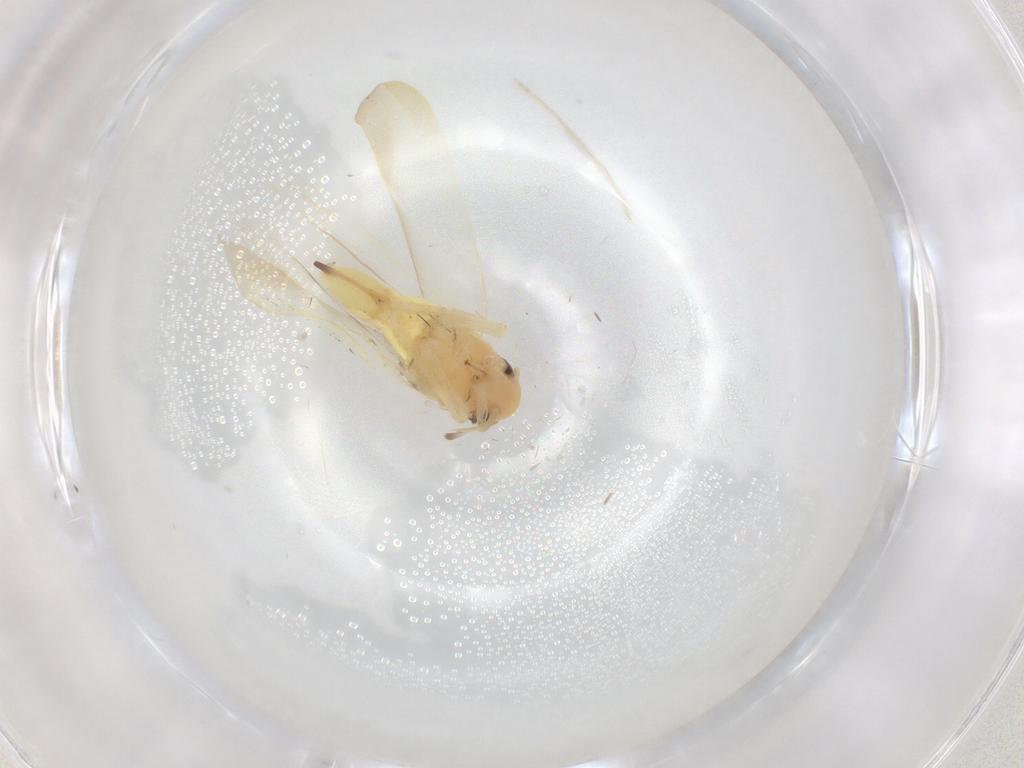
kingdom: Animalia
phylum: Arthropoda
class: Insecta
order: Hemiptera
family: Cicadellidae
